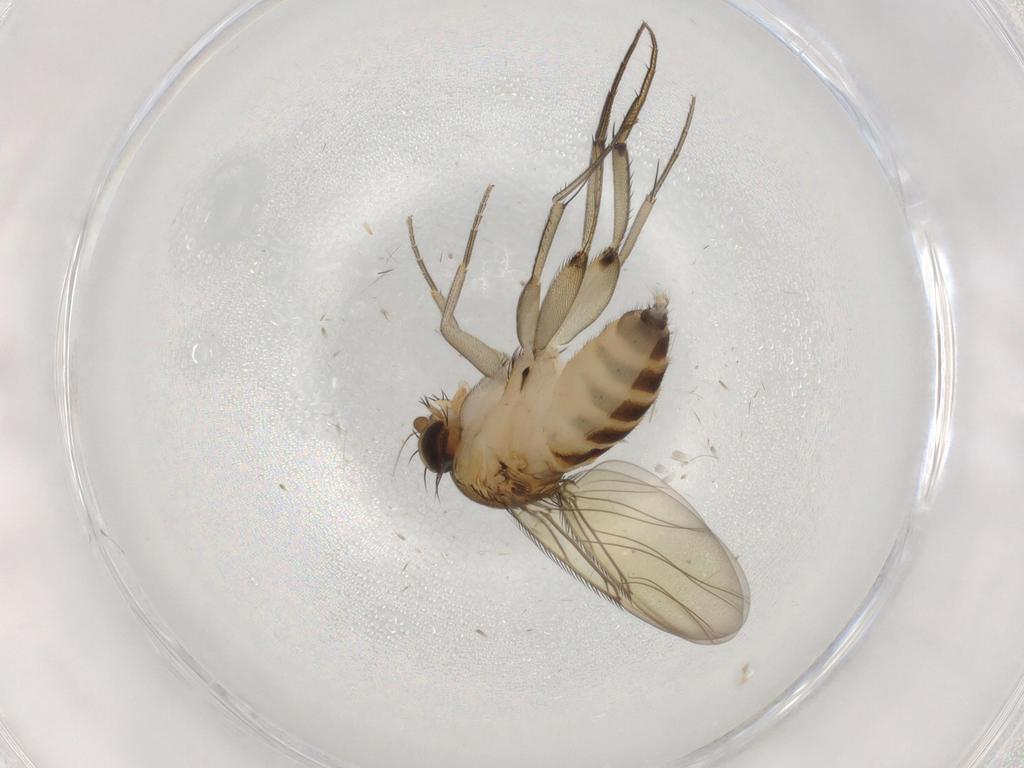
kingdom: Animalia
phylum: Arthropoda
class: Insecta
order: Diptera
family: Phoridae
